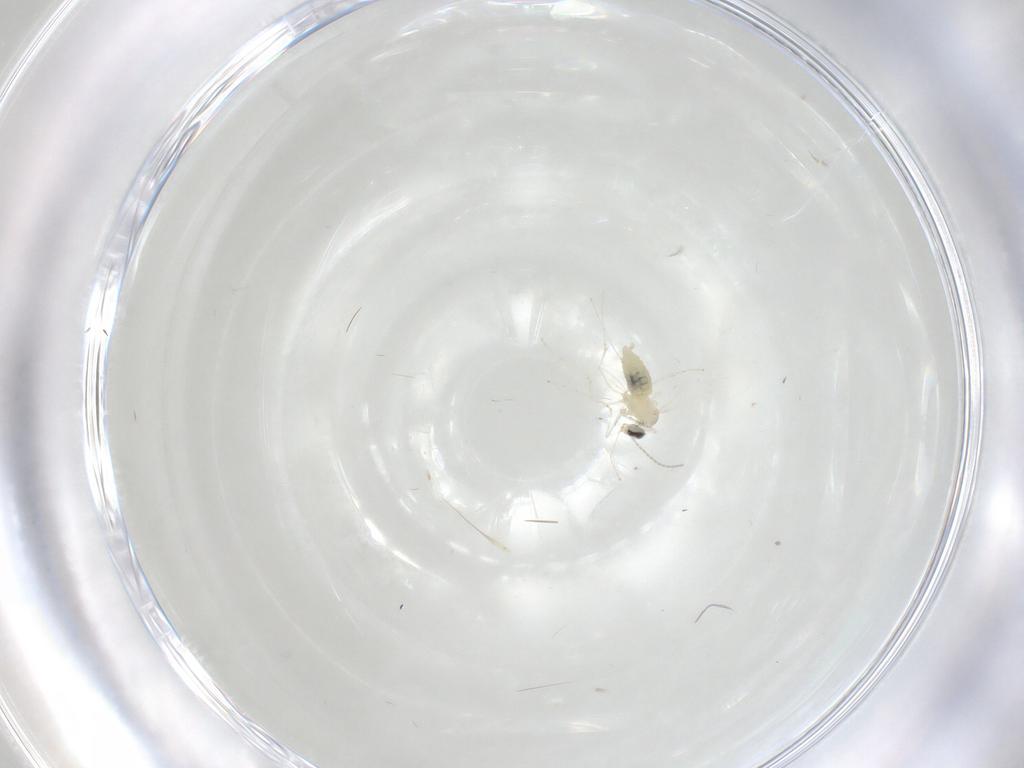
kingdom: Animalia
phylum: Arthropoda
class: Insecta
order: Diptera
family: Cecidomyiidae
